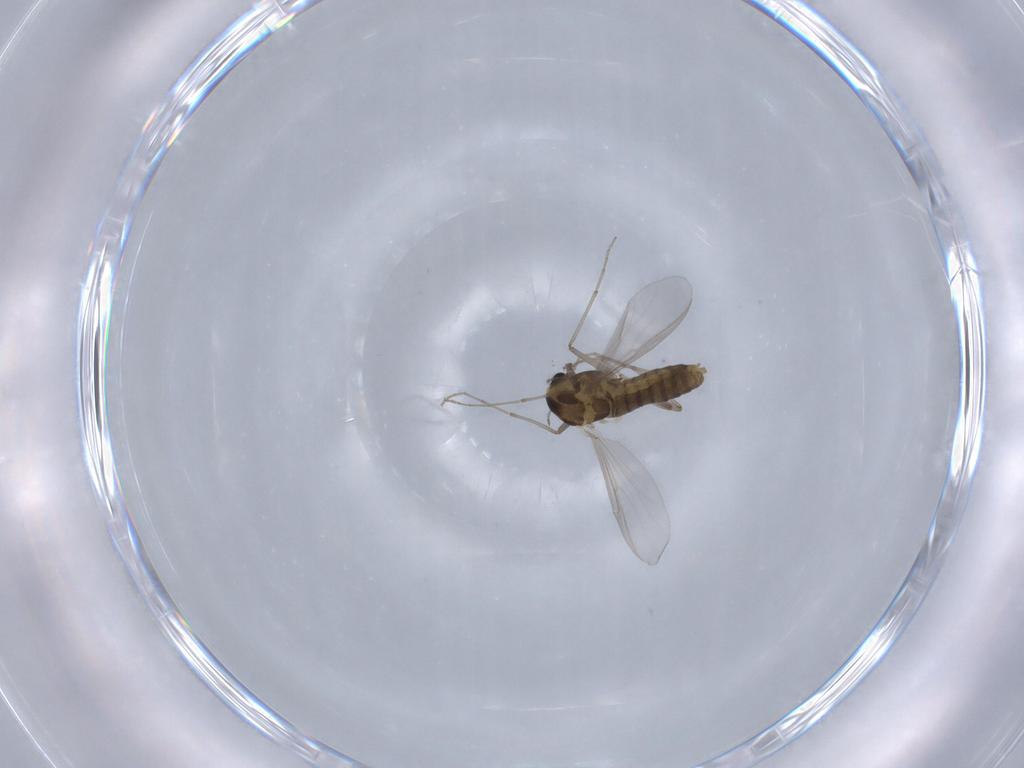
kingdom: Animalia
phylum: Arthropoda
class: Insecta
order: Diptera
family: Chironomidae
